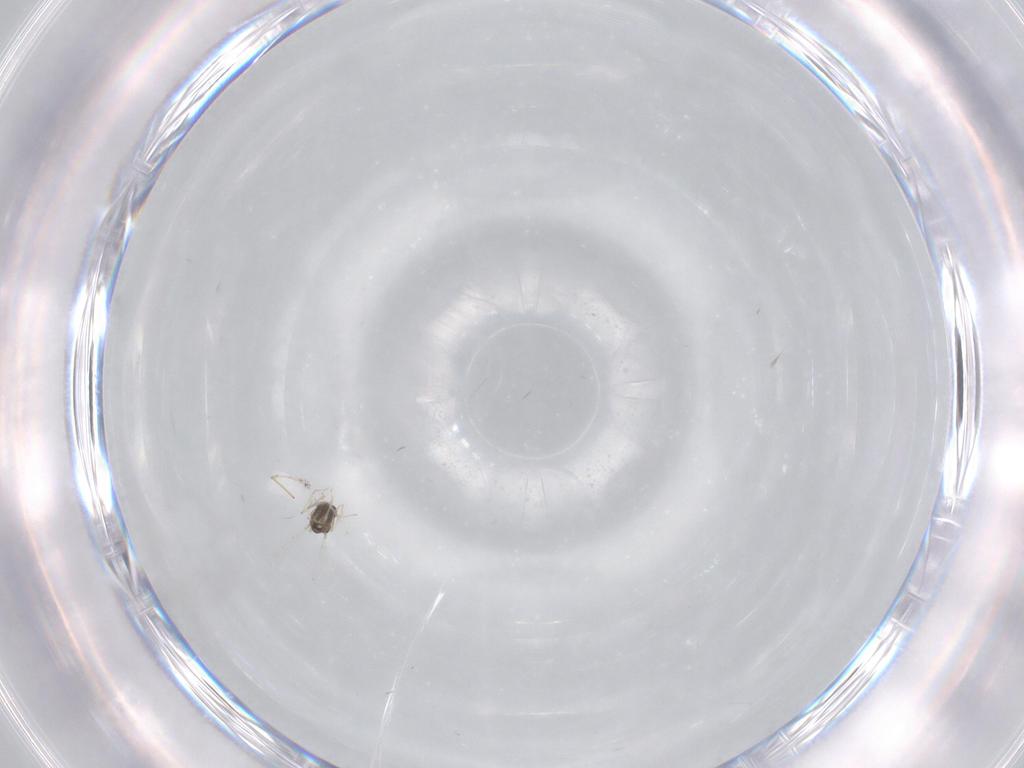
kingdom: Animalia
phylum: Arthropoda
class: Insecta
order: Diptera
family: Chironomidae
